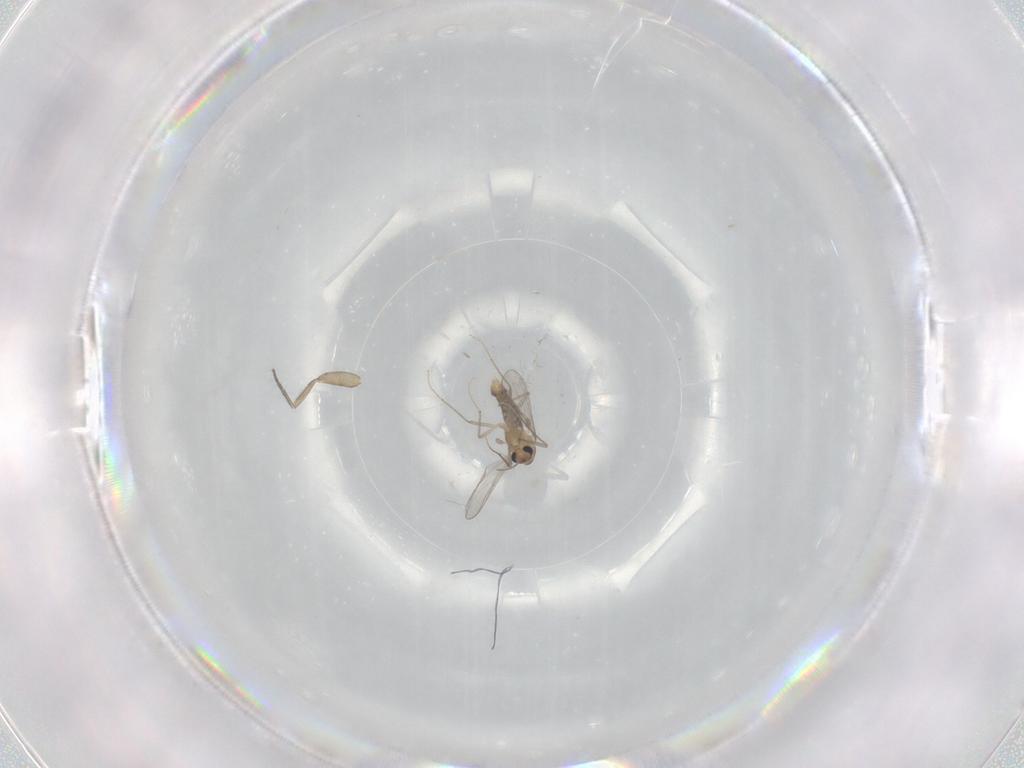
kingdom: Animalia
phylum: Arthropoda
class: Insecta
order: Diptera
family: Chironomidae
